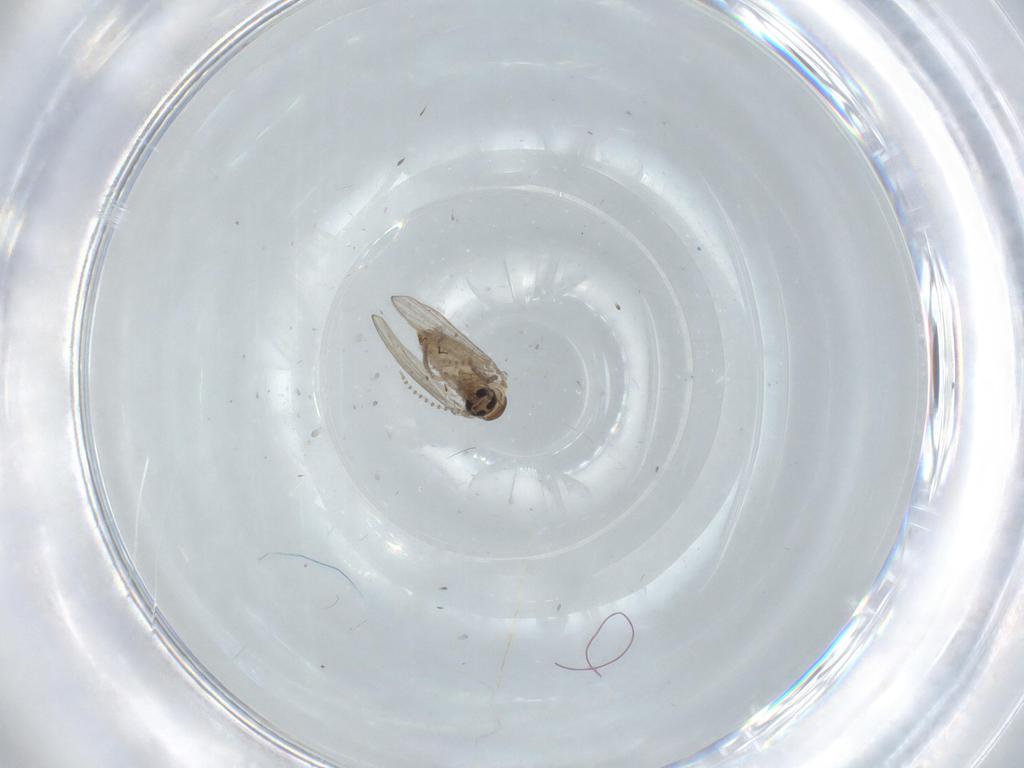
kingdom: Animalia
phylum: Arthropoda
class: Insecta
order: Diptera
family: Psychodidae
